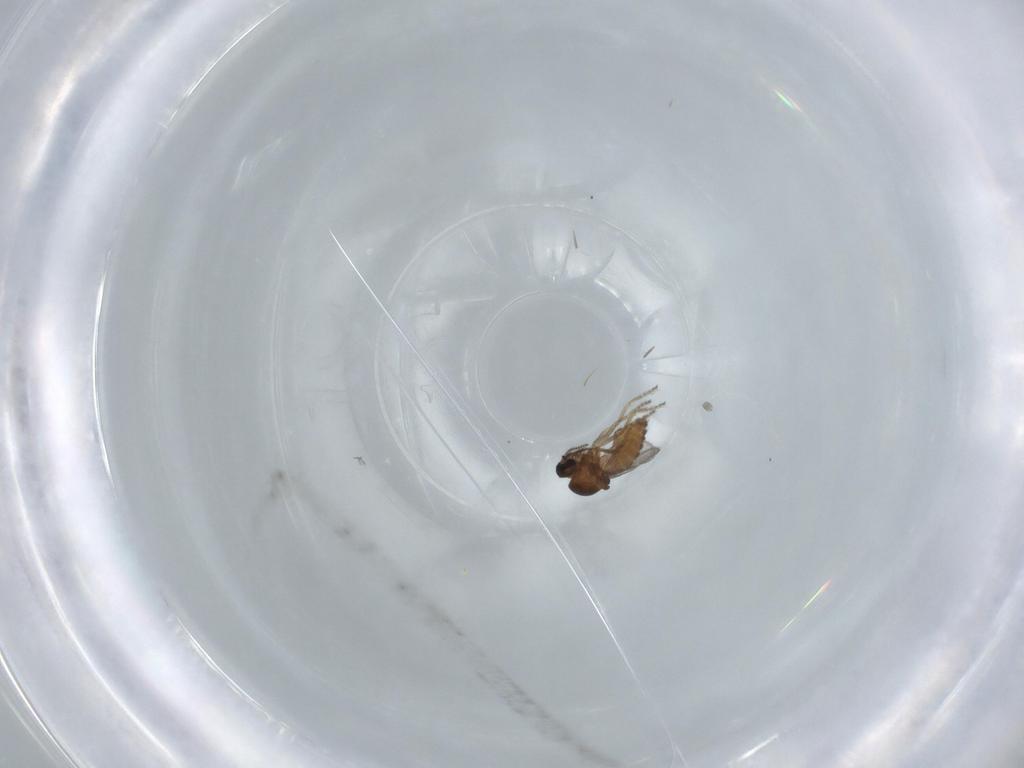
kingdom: Animalia
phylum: Arthropoda
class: Insecta
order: Diptera
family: Ceratopogonidae
